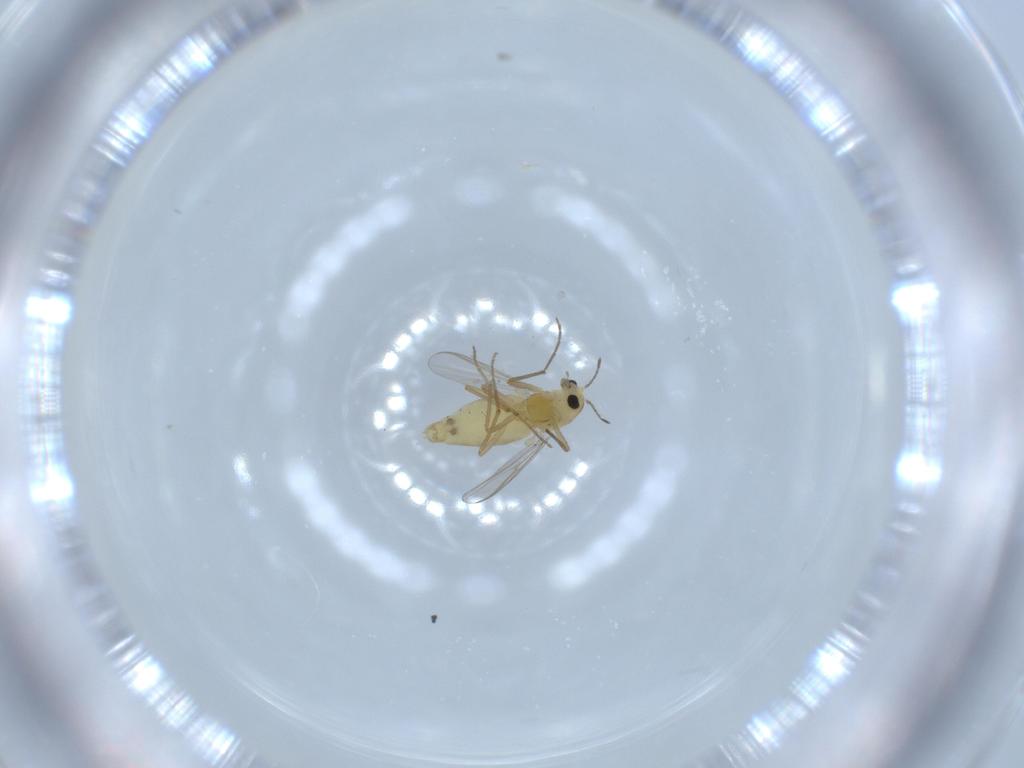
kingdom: Animalia
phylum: Arthropoda
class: Insecta
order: Diptera
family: Chironomidae
